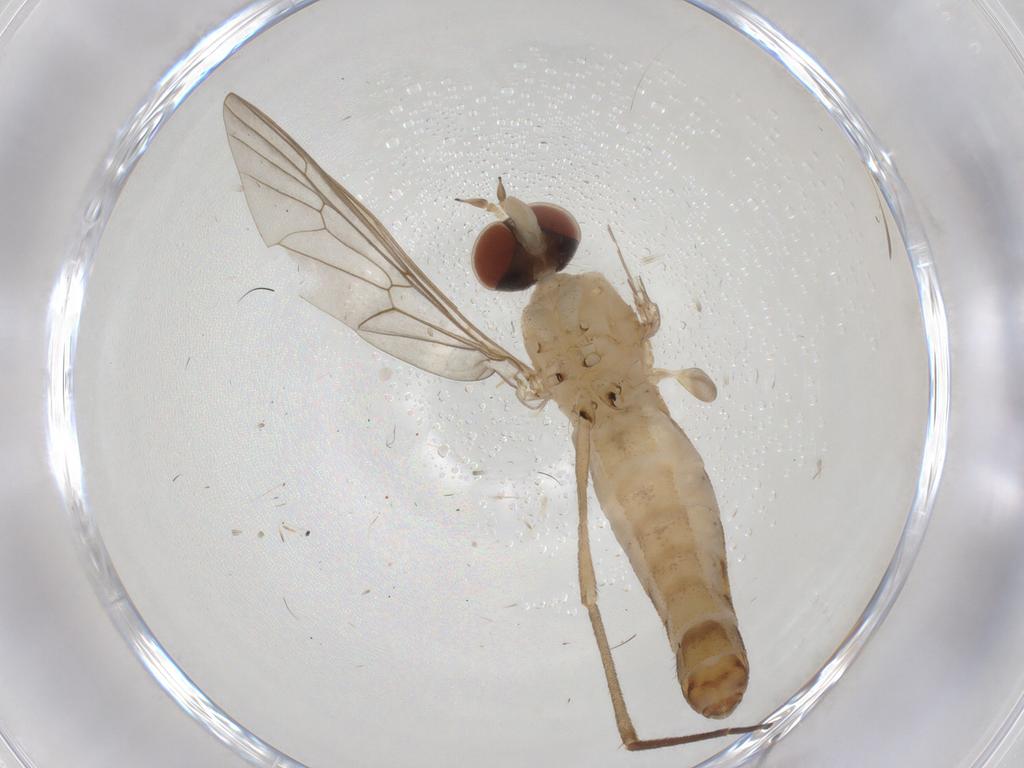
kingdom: Animalia
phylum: Arthropoda
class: Insecta
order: Diptera
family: Apsilocephalidae
